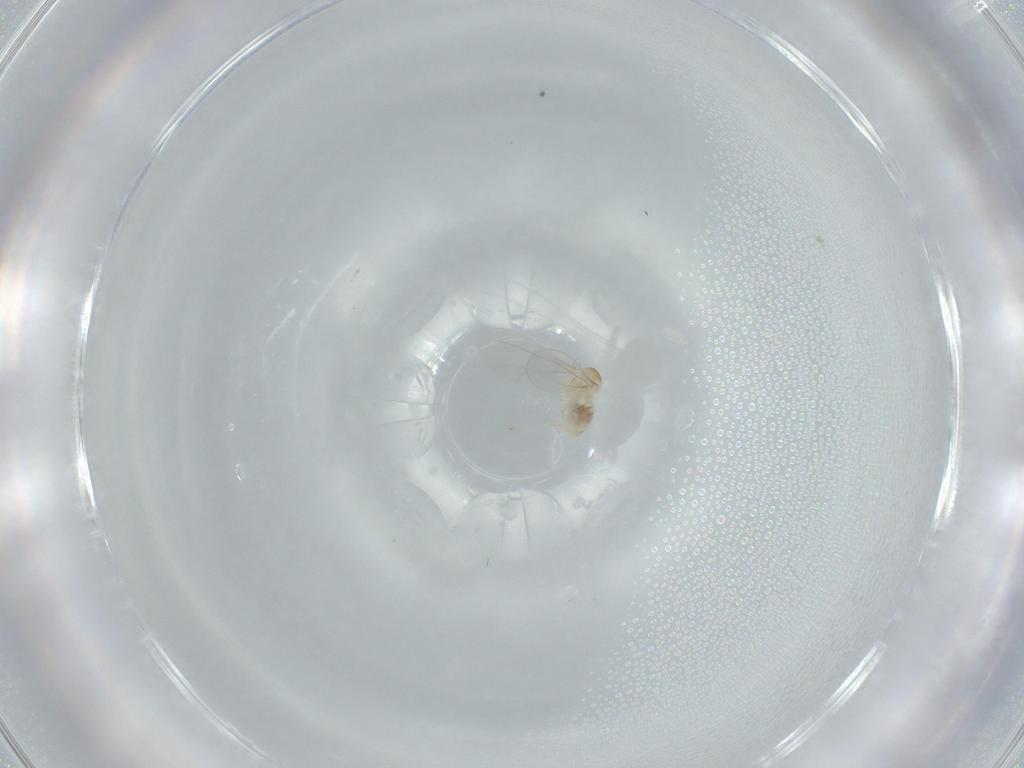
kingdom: Animalia
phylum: Arthropoda
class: Insecta
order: Diptera
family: Cecidomyiidae
